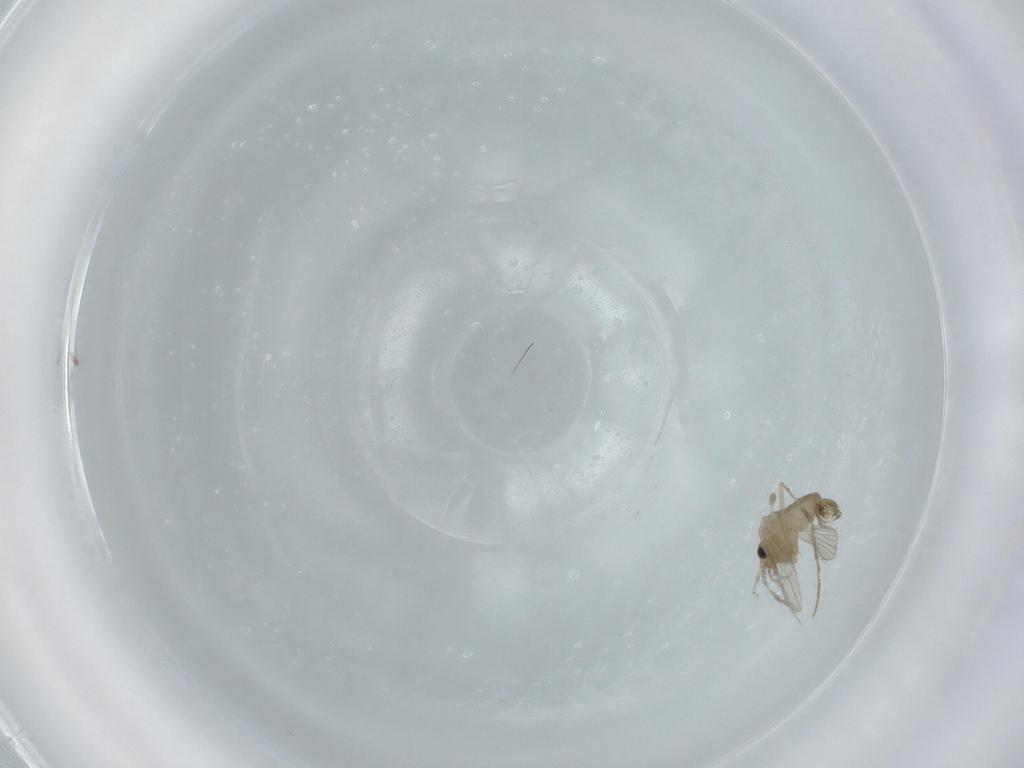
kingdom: Animalia
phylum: Arthropoda
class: Insecta
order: Diptera
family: Psychodidae
